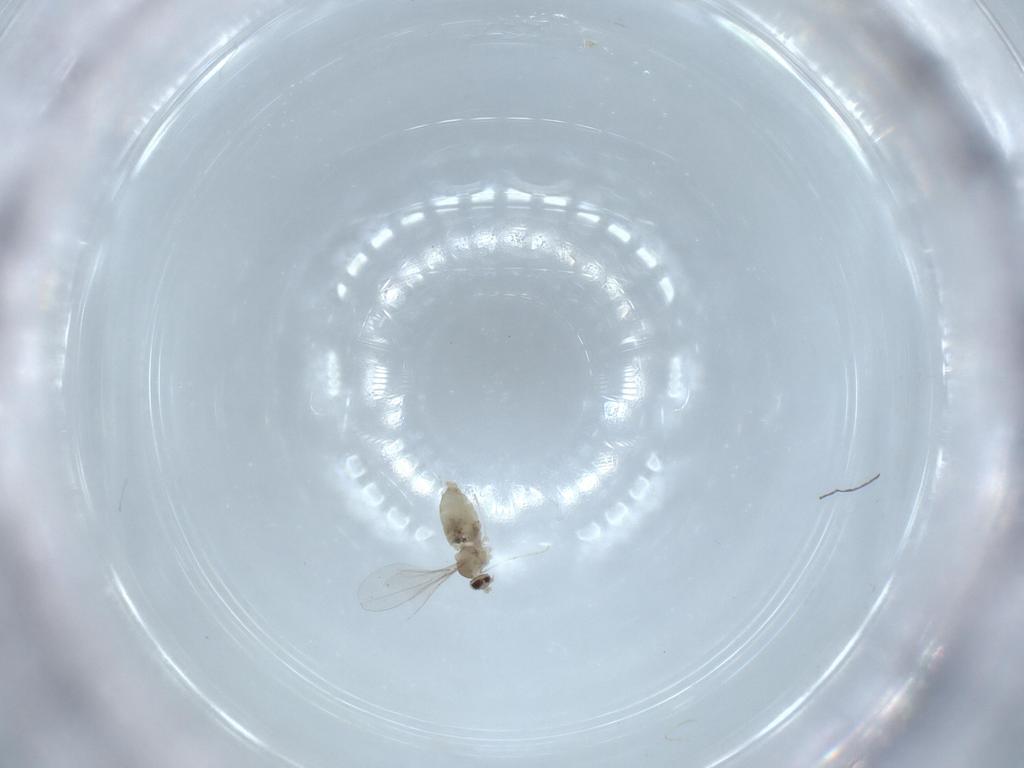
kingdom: Animalia
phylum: Arthropoda
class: Insecta
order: Diptera
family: Cecidomyiidae
